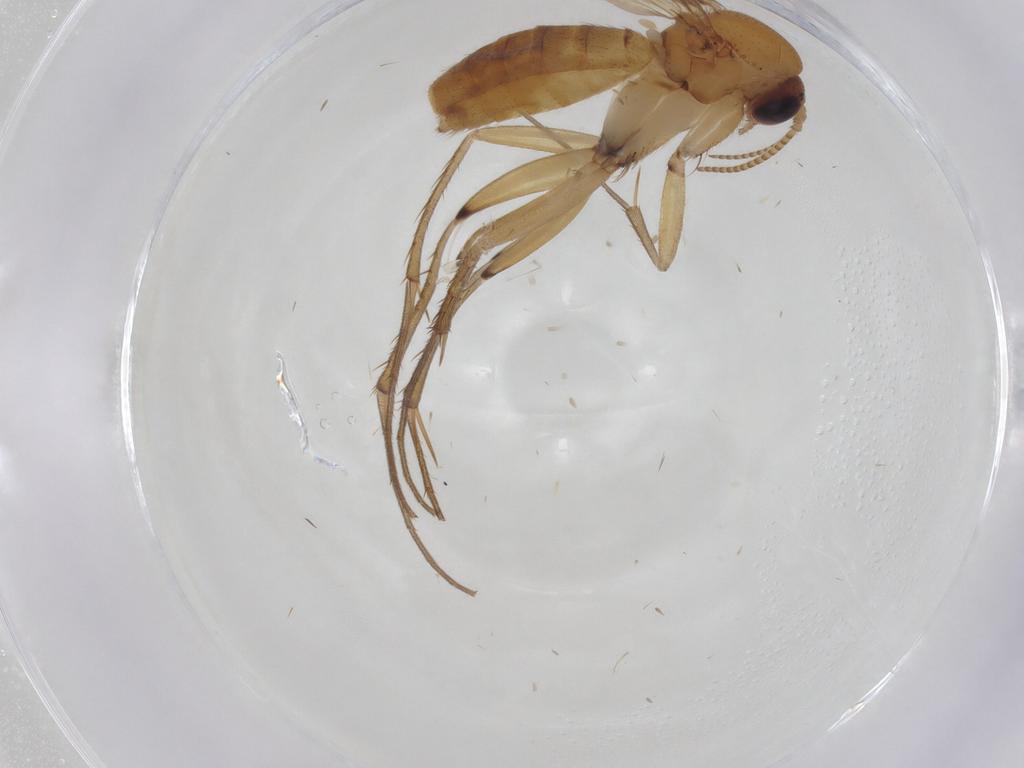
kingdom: Animalia
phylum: Arthropoda
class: Insecta
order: Diptera
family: Mycetophilidae
